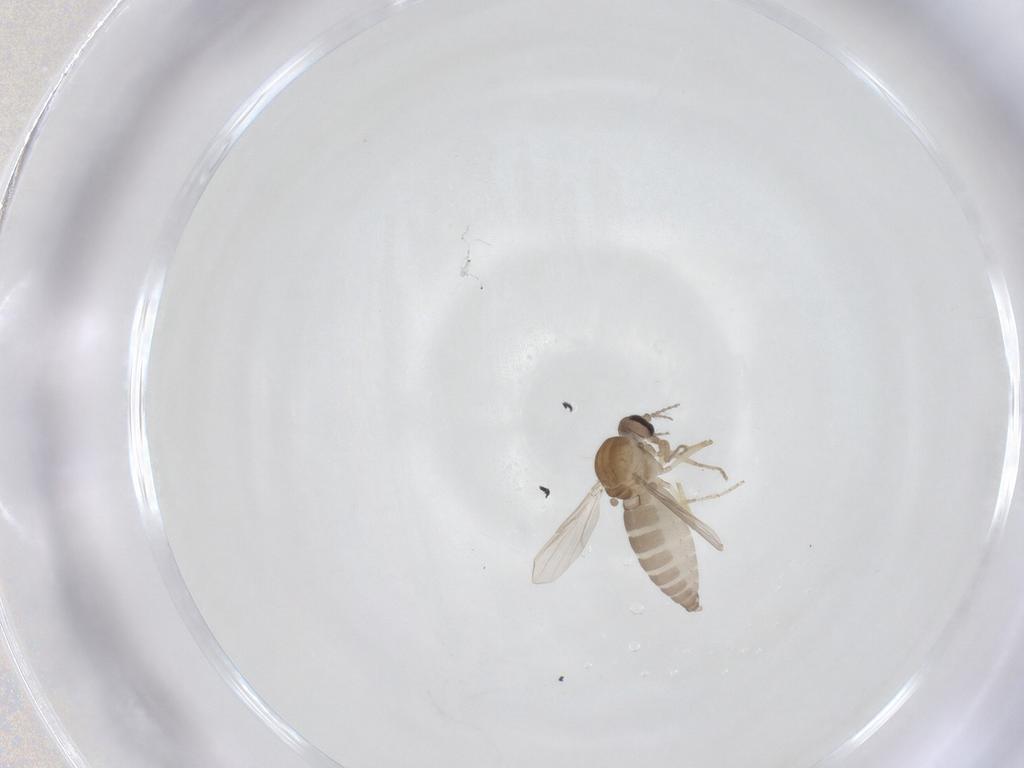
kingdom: Animalia
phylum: Arthropoda
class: Insecta
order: Diptera
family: Ceratopogonidae
